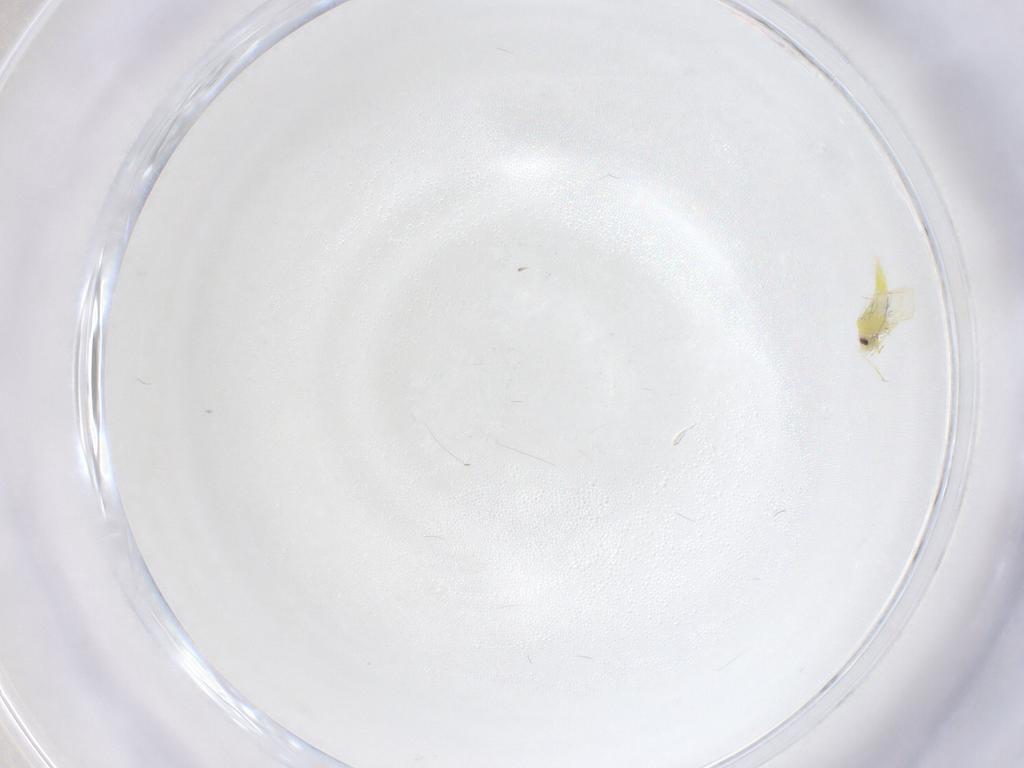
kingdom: Animalia
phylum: Arthropoda
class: Insecta
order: Hemiptera
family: Aleyrodidae
